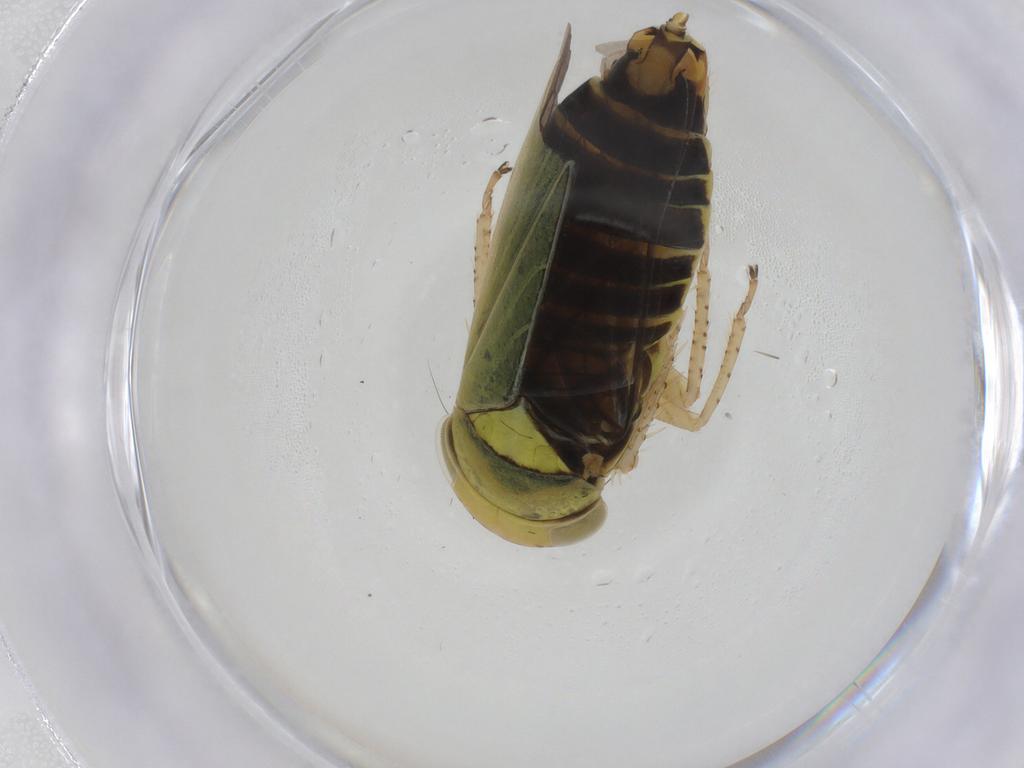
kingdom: Animalia
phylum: Arthropoda
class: Insecta
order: Hemiptera
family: Cicadellidae
